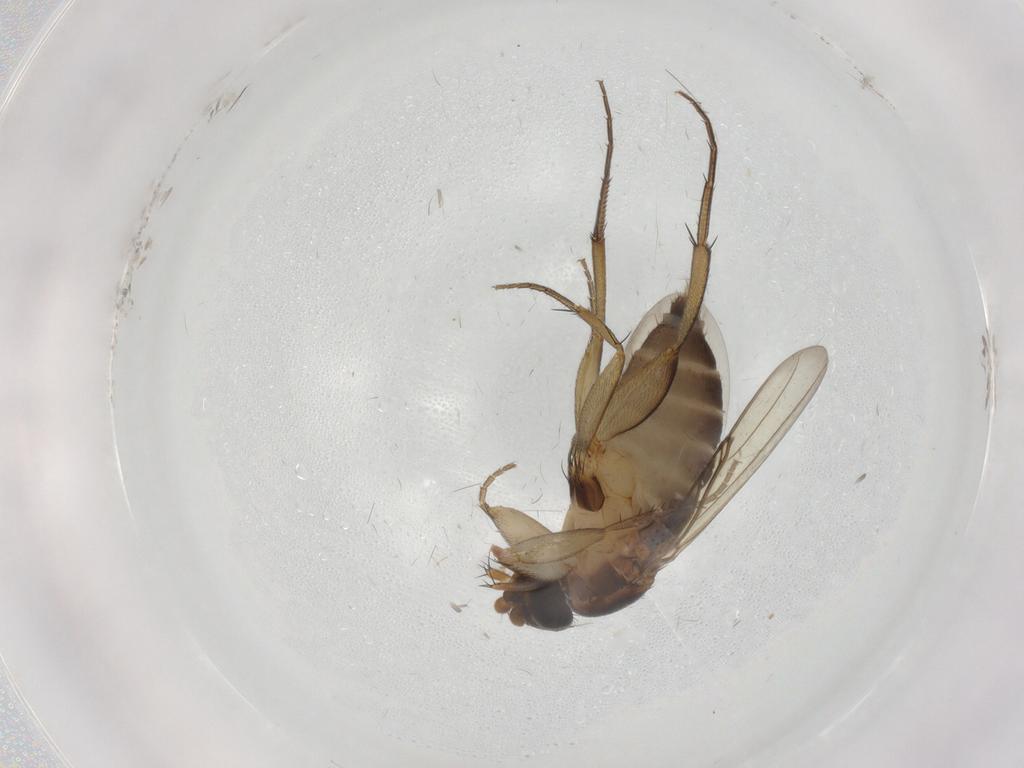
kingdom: Animalia
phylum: Arthropoda
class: Insecta
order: Diptera
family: Phoridae
